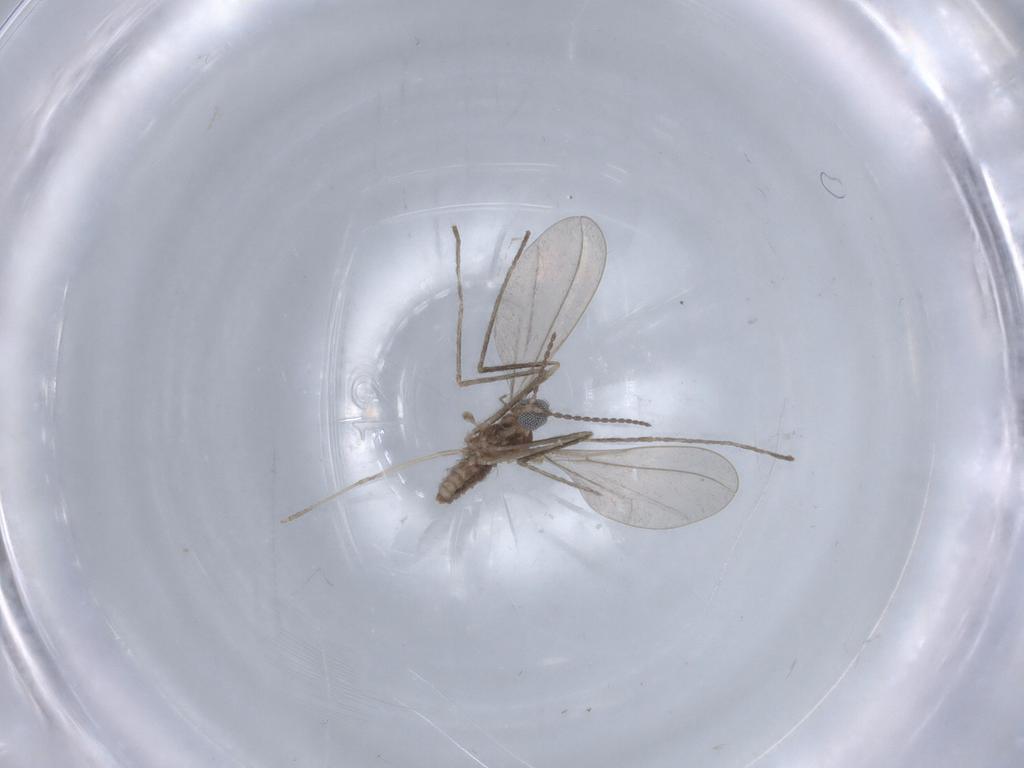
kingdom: Animalia
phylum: Arthropoda
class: Insecta
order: Diptera
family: Cecidomyiidae
